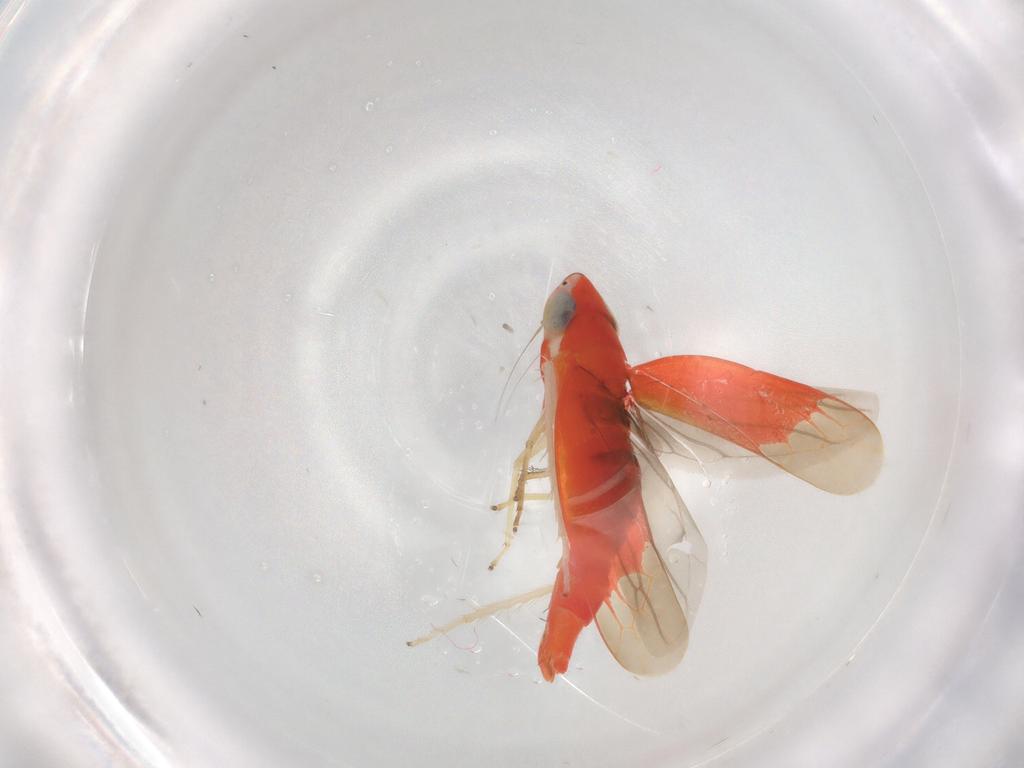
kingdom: Animalia
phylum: Arthropoda
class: Insecta
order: Hemiptera
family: Cicadellidae
